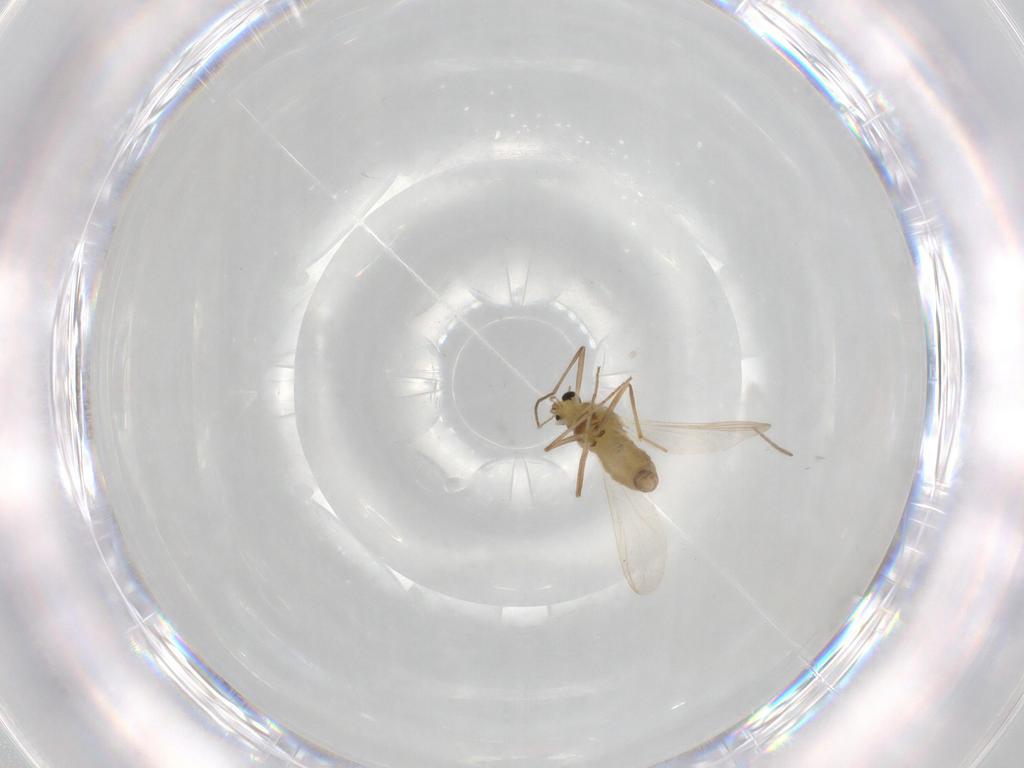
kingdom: Animalia
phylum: Arthropoda
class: Insecta
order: Diptera
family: Chironomidae
